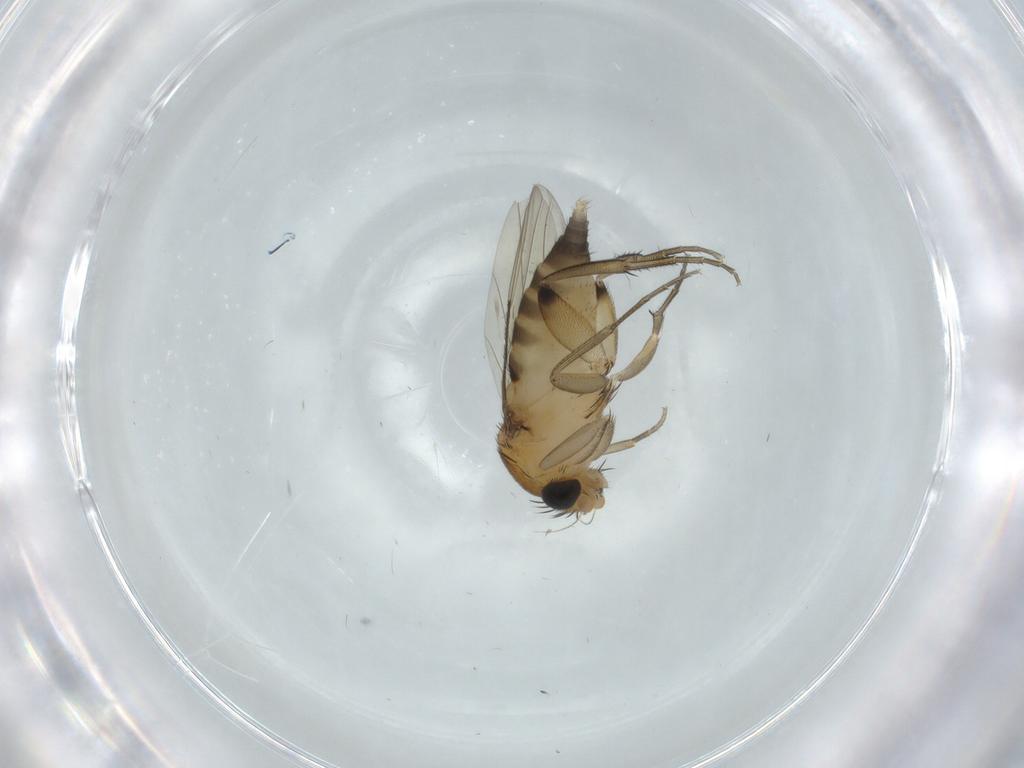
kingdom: Animalia
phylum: Arthropoda
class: Insecta
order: Diptera
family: Phoridae
